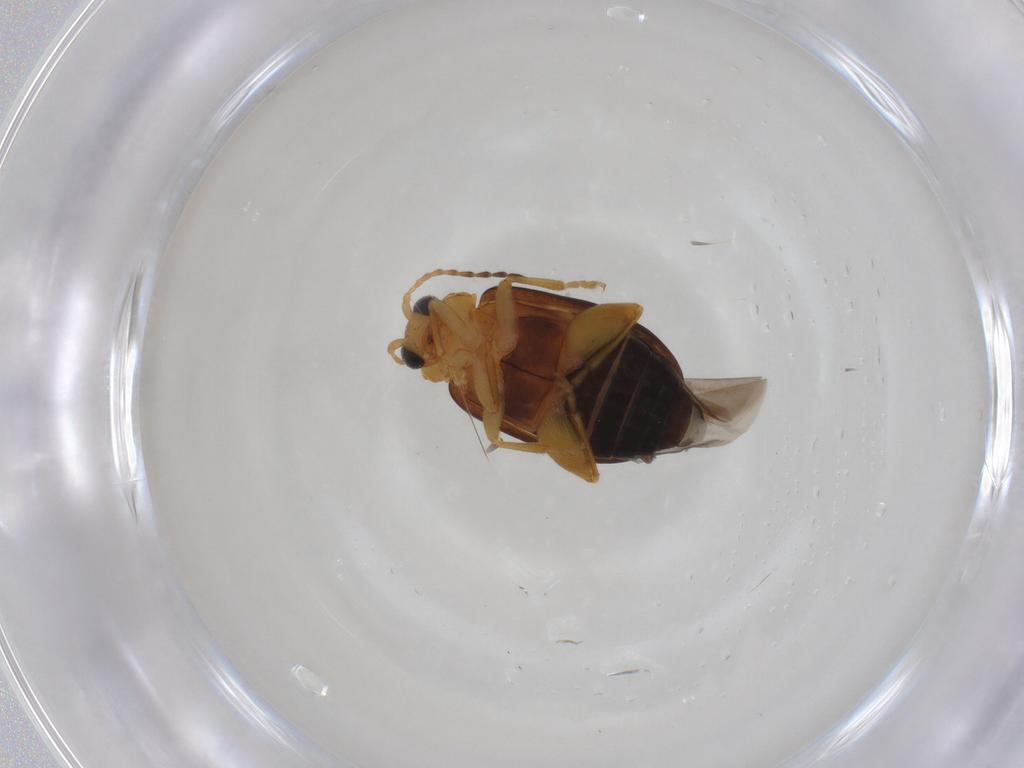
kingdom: Animalia
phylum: Arthropoda
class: Insecta
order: Coleoptera
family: Chrysomelidae
